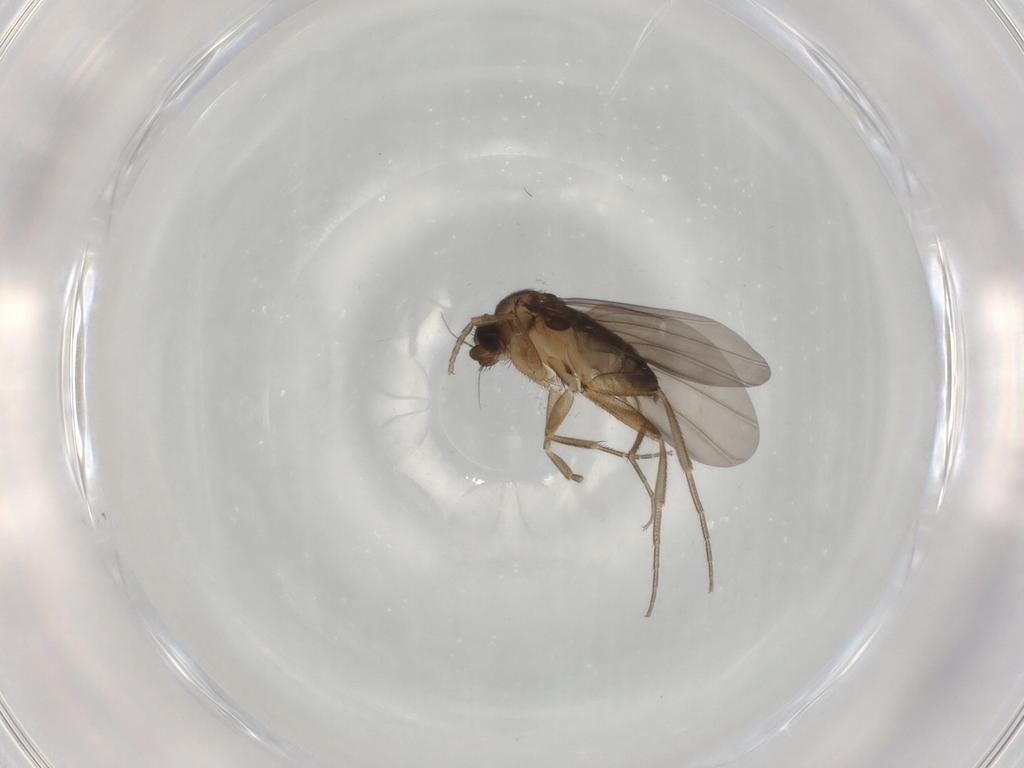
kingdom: Animalia
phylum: Arthropoda
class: Insecta
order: Diptera
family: Phoridae
